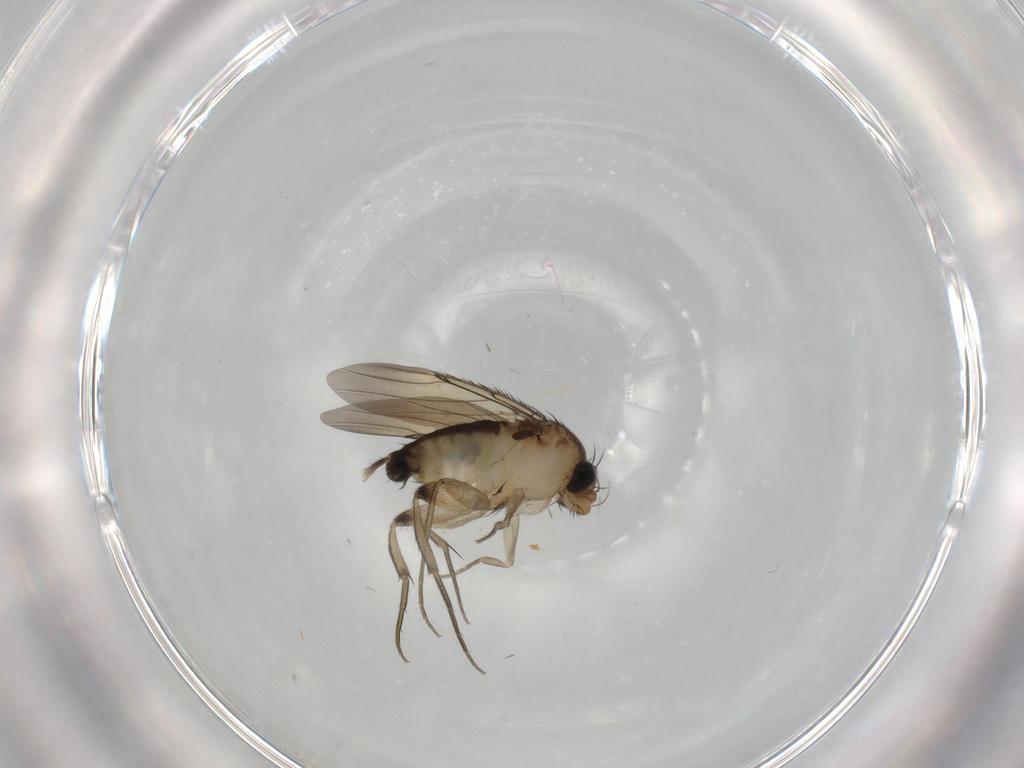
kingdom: Animalia
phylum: Arthropoda
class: Insecta
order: Diptera
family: Phoridae
